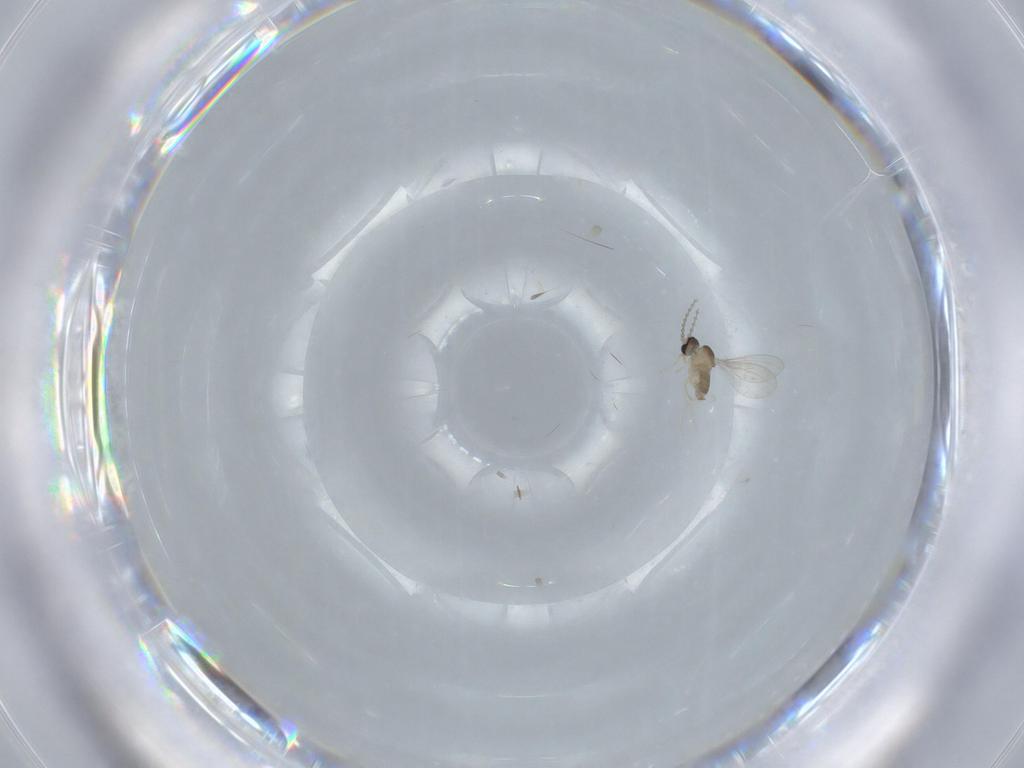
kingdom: Animalia
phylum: Arthropoda
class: Insecta
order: Diptera
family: Cecidomyiidae
